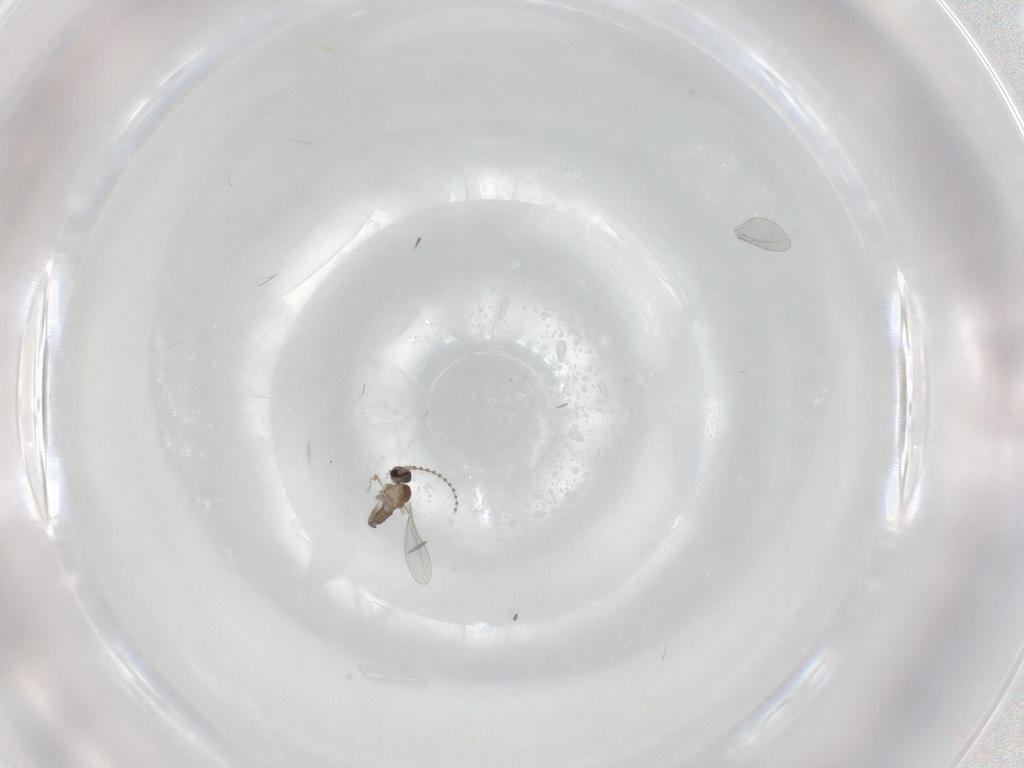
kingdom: Animalia
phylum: Arthropoda
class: Insecta
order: Diptera
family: Cecidomyiidae
